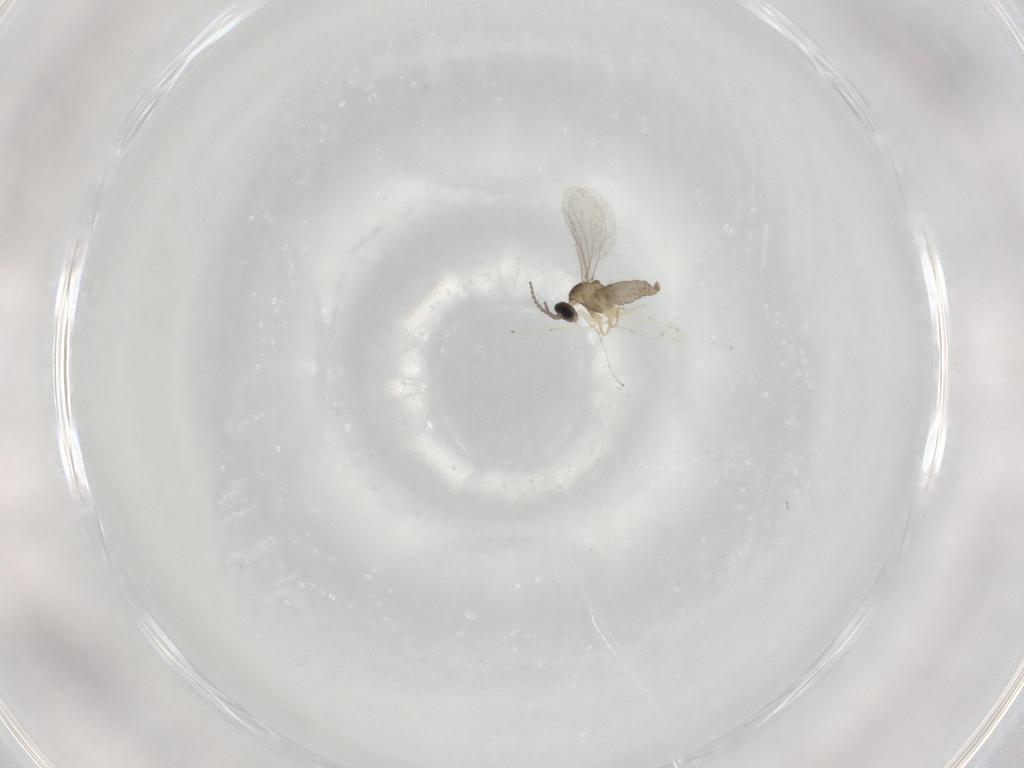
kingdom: Animalia
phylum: Arthropoda
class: Insecta
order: Diptera
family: Cecidomyiidae
